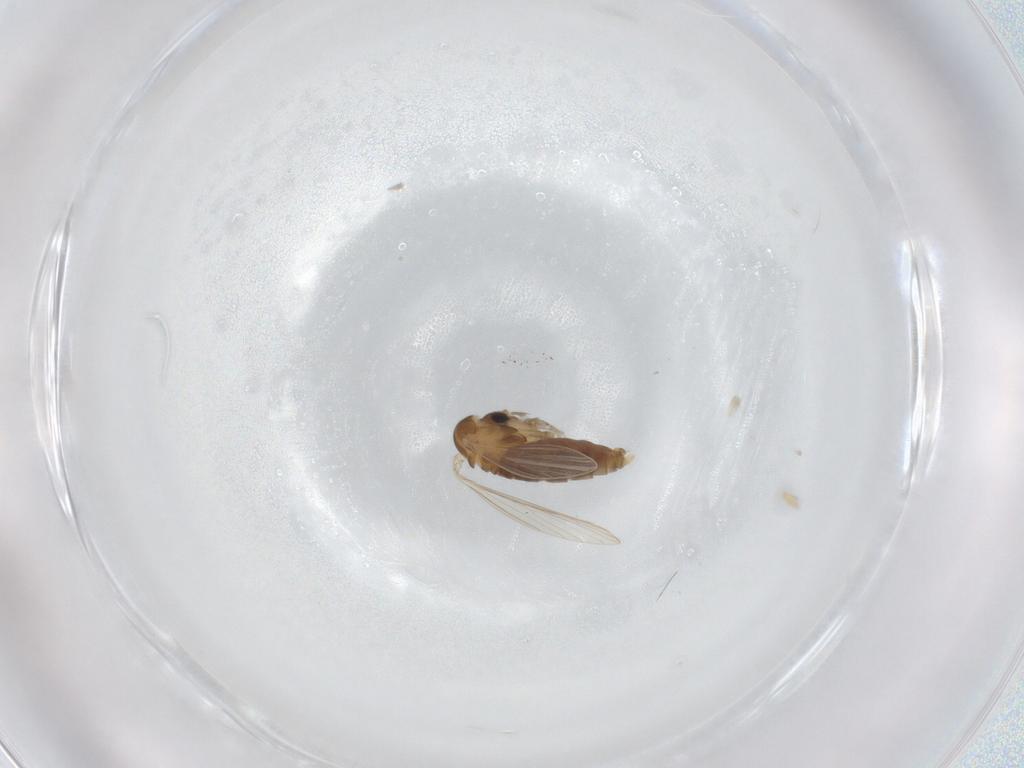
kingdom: Animalia
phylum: Arthropoda
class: Insecta
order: Diptera
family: Psychodidae
